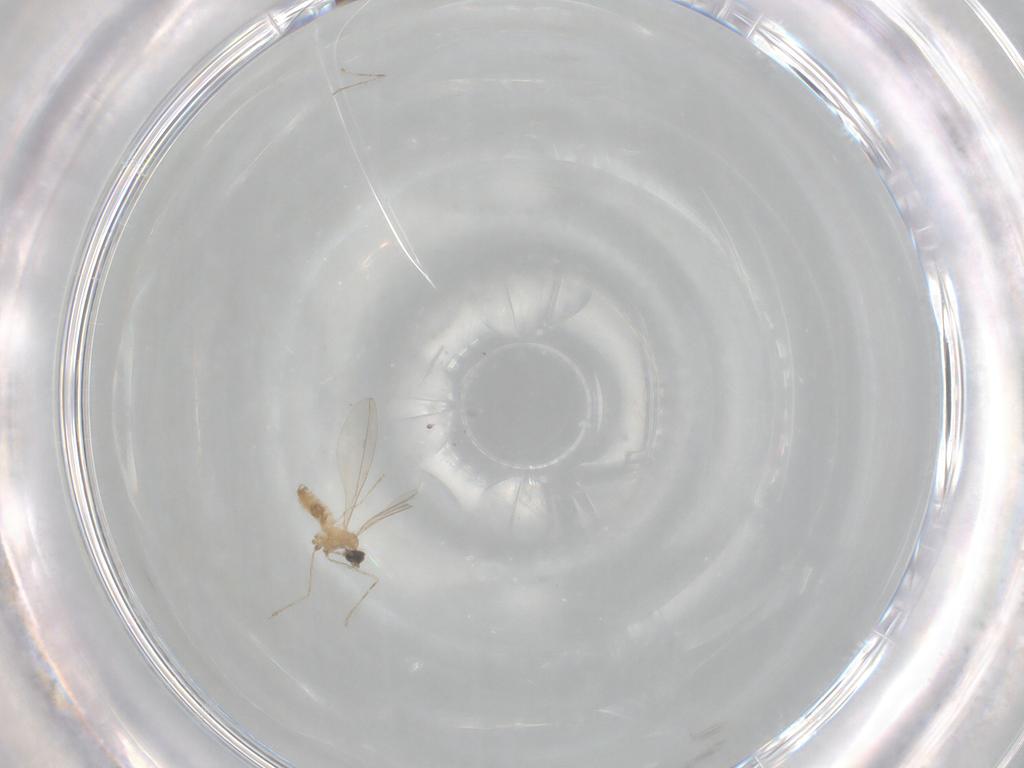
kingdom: Animalia
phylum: Arthropoda
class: Insecta
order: Diptera
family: Cecidomyiidae
